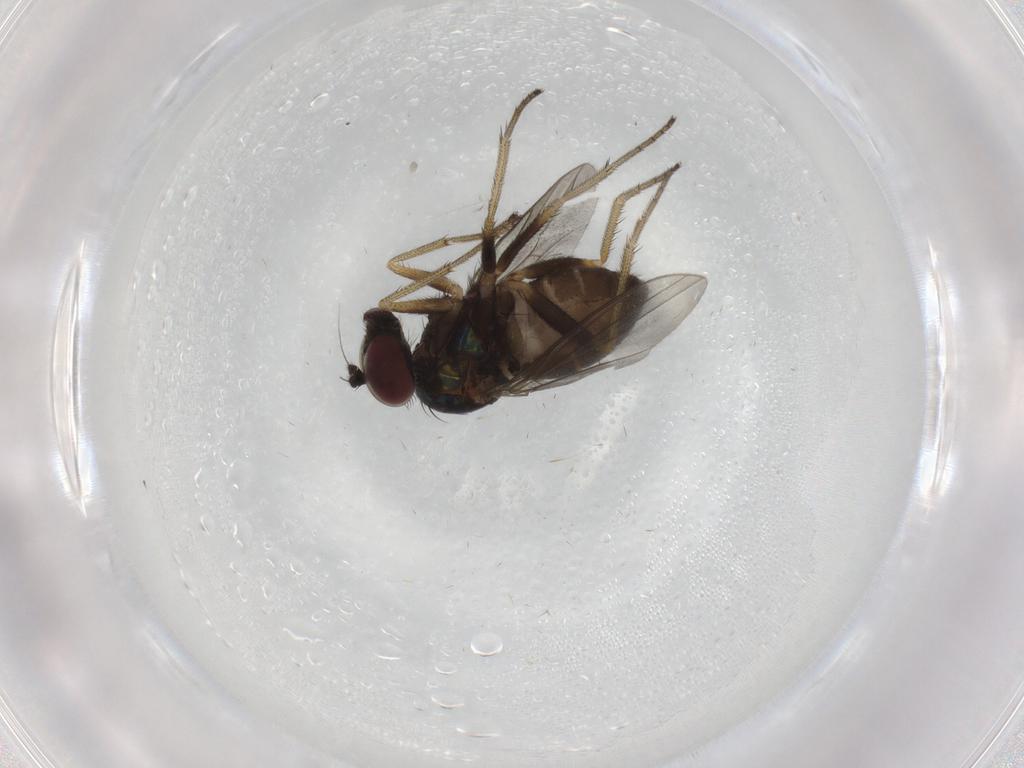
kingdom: Animalia
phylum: Arthropoda
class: Insecta
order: Diptera
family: Dolichopodidae
